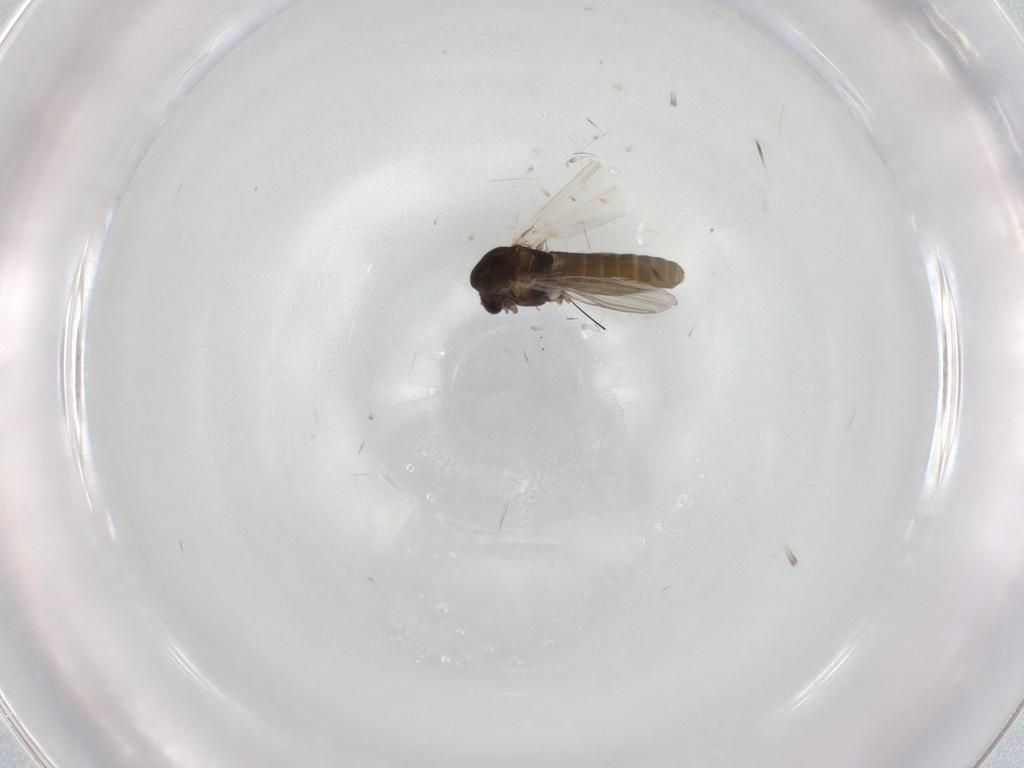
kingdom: Animalia
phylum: Arthropoda
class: Insecta
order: Diptera
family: Chironomidae
